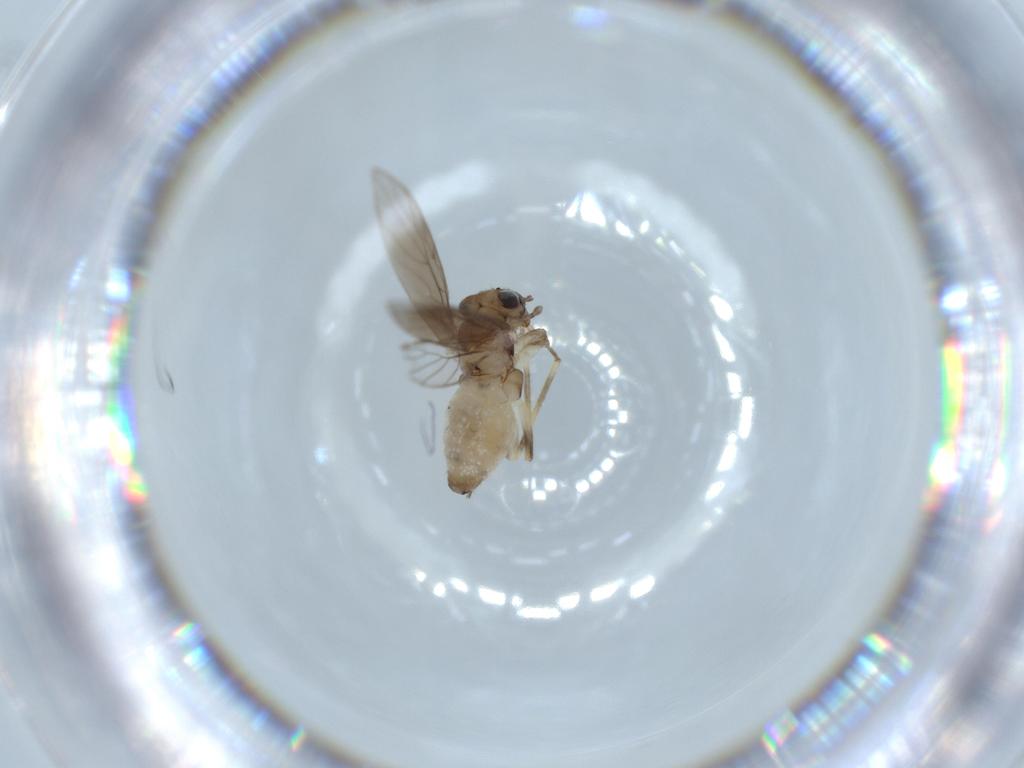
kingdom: Animalia
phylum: Arthropoda
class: Insecta
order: Psocodea
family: Lepidopsocidae
